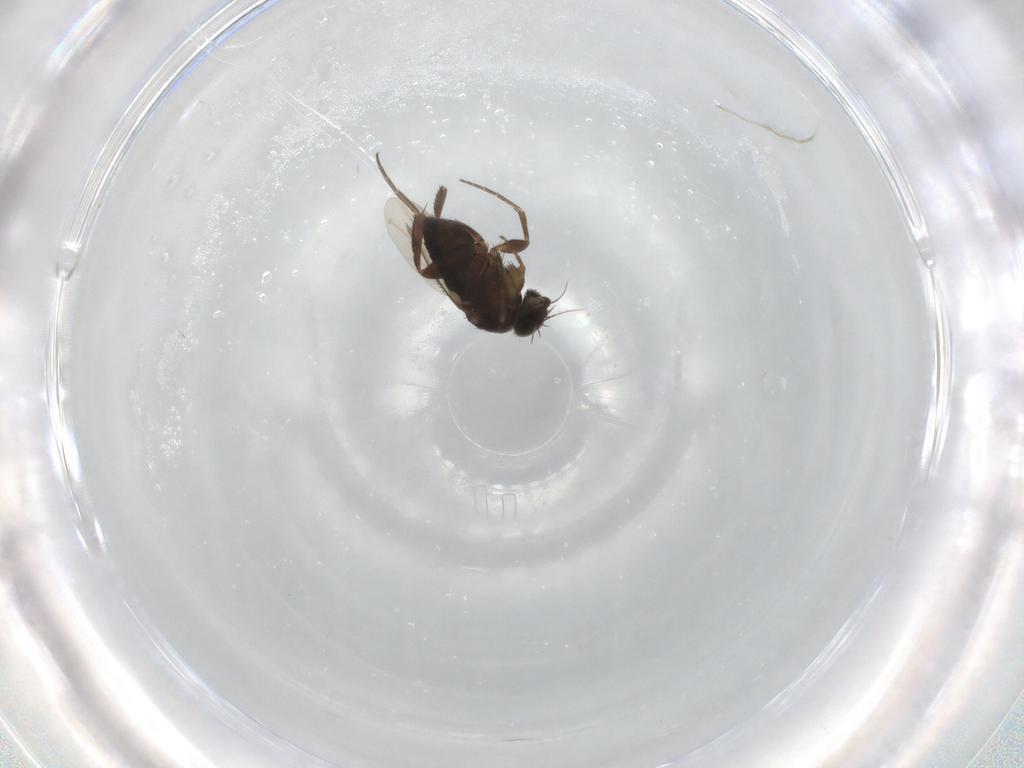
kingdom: Animalia
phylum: Arthropoda
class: Insecta
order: Diptera
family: Phoridae
